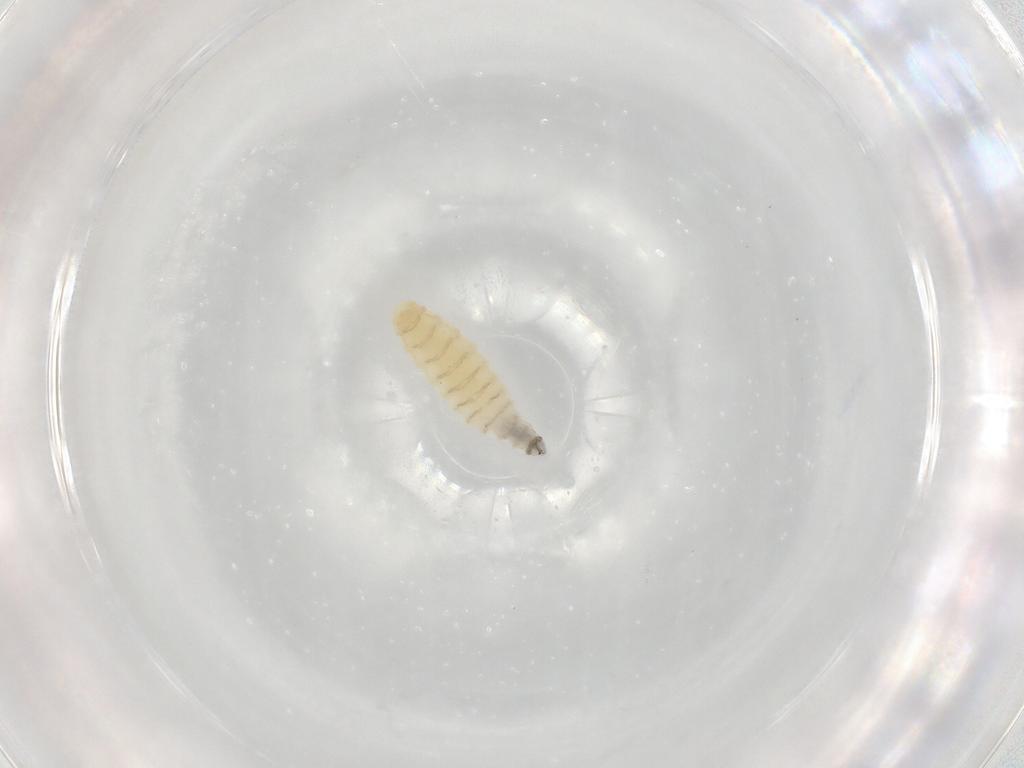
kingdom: Animalia
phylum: Arthropoda
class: Insecta
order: Diptera
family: Sarcophagidae
